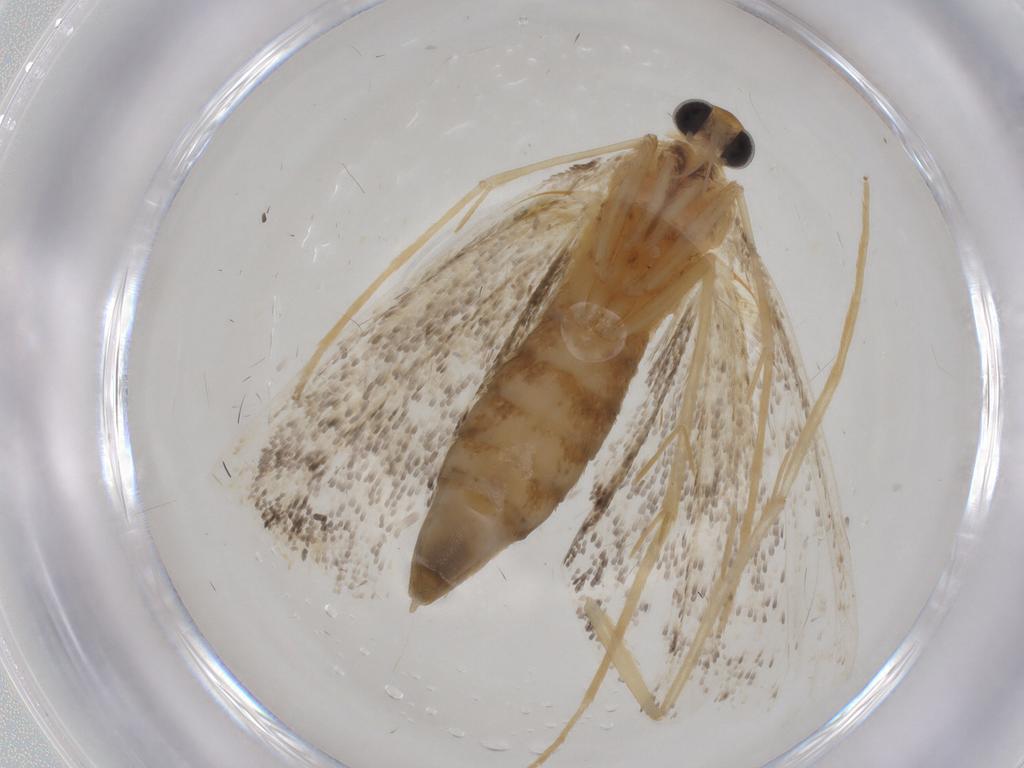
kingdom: Animalia
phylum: Arthropoda
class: Insecta
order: Lepidoptera
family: Geometridae
